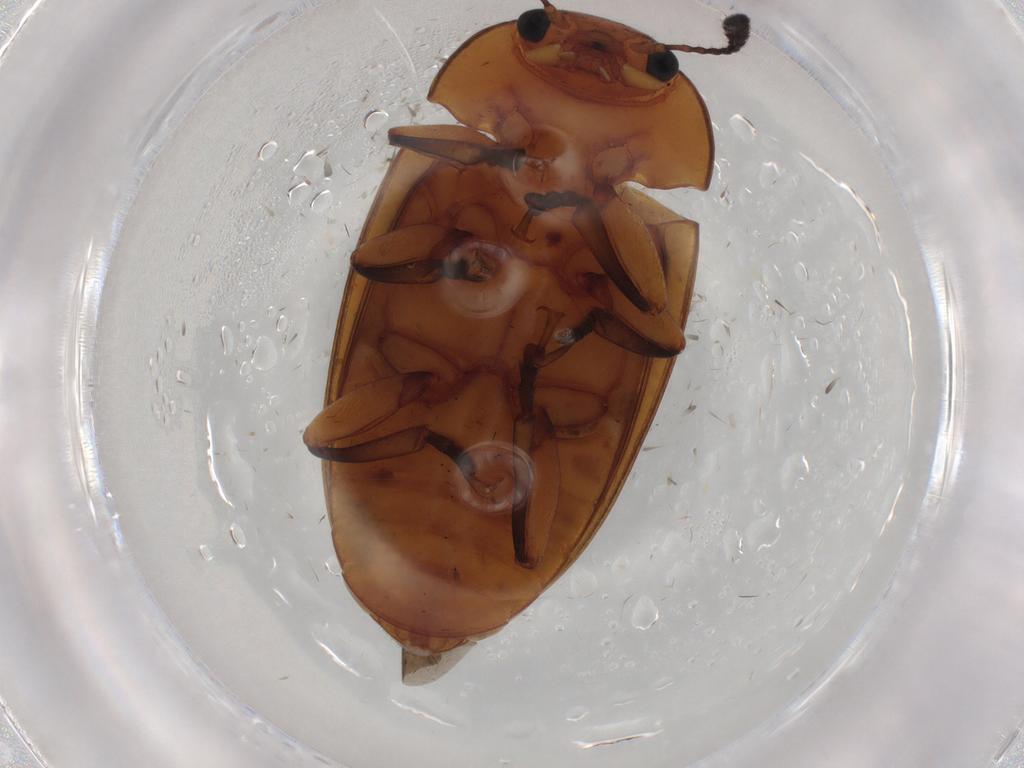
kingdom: Animalia
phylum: Arthropoda
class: Insecta
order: Coleoptera
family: Erotylidae
